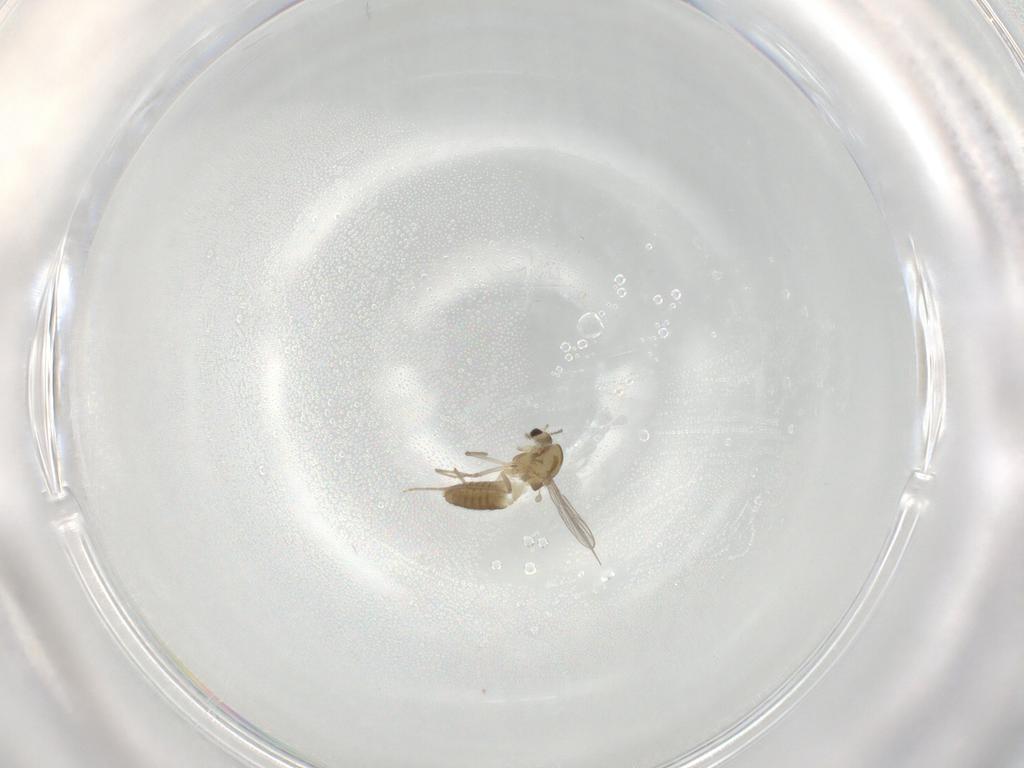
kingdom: Animalia
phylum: Arthropoda
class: Insecta
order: Diptera
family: Chironomidae
